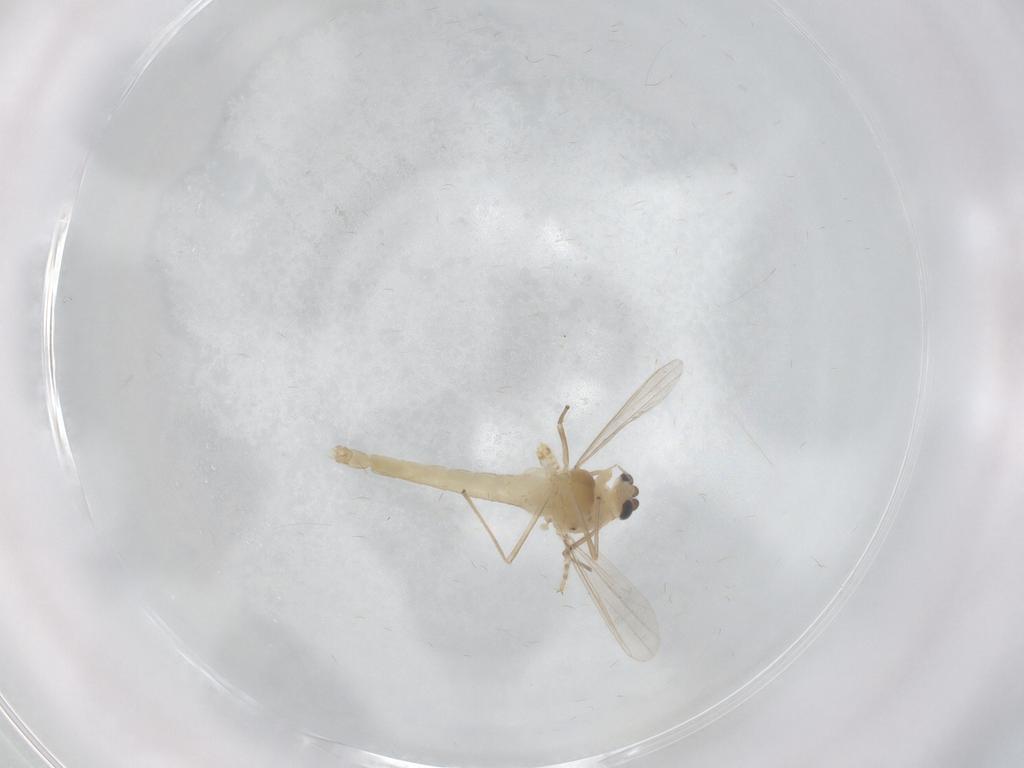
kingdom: Animalia
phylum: Arthropoda
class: Insecta
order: Diptera
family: Chironomidae
